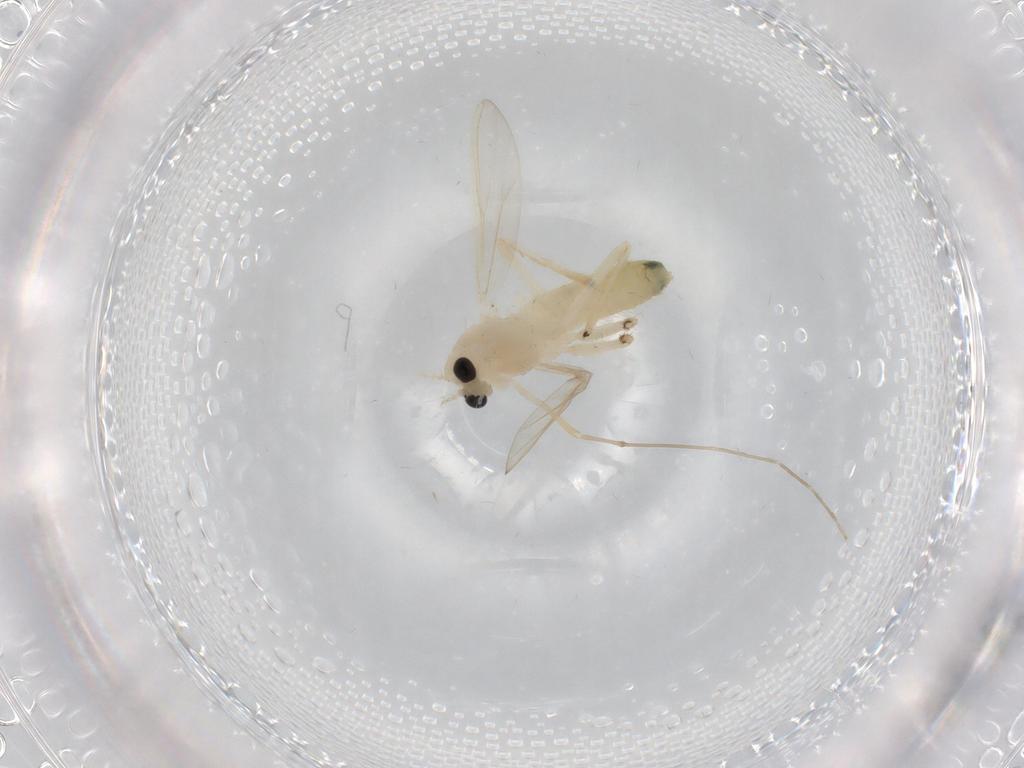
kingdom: Animalia
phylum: Arthropoda
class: Insecta
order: Diptera
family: Chironomidae
